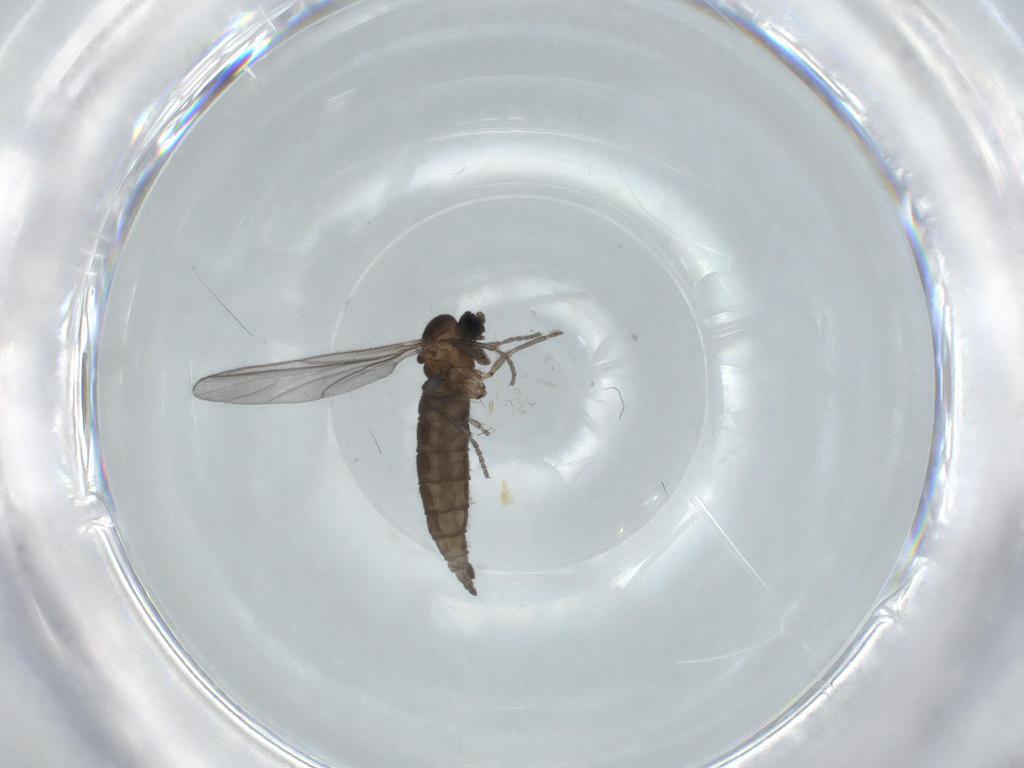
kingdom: Animalia
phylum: Arthropoda
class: Insecta
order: Diptera
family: Sciaridae
